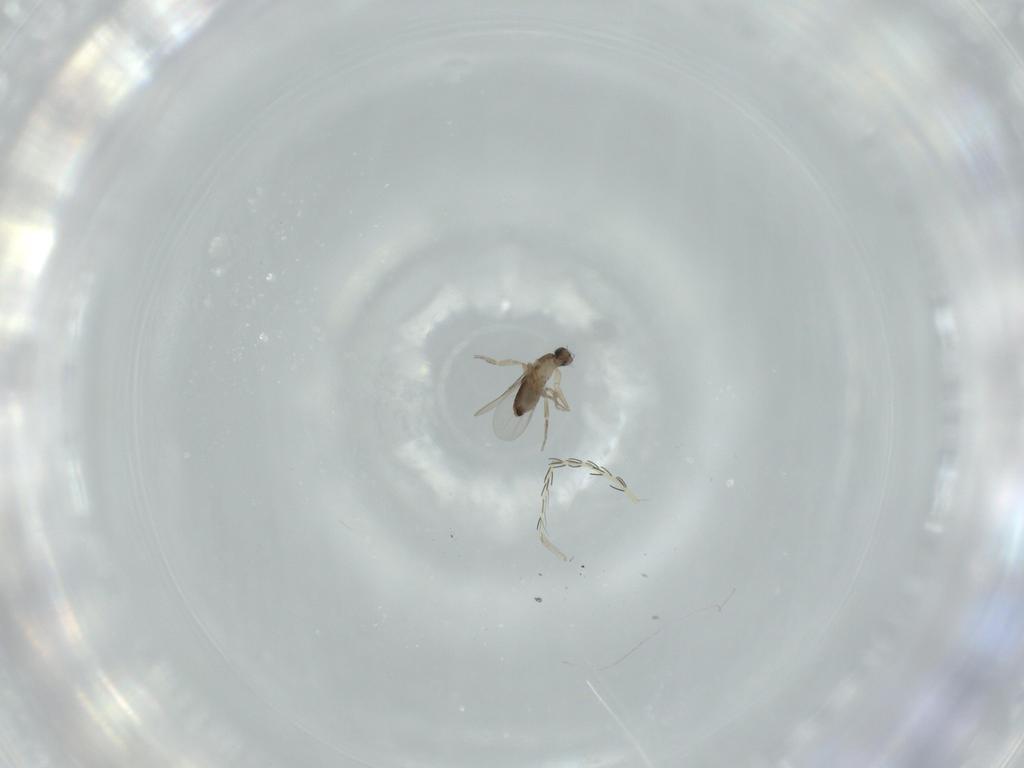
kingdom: Animalia
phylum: Arthropoda
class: Insecta
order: Diptera
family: Phoridae
